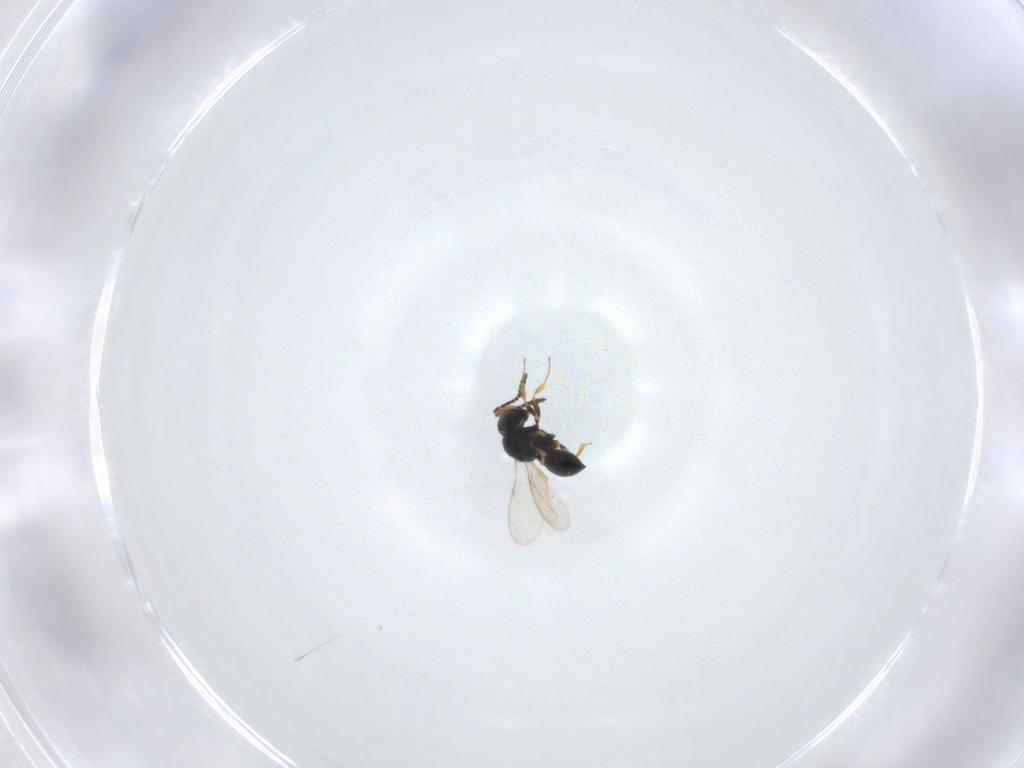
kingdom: Animalia
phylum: Arthropoda
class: Insecta
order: Hymenoptera
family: Scelionidae
